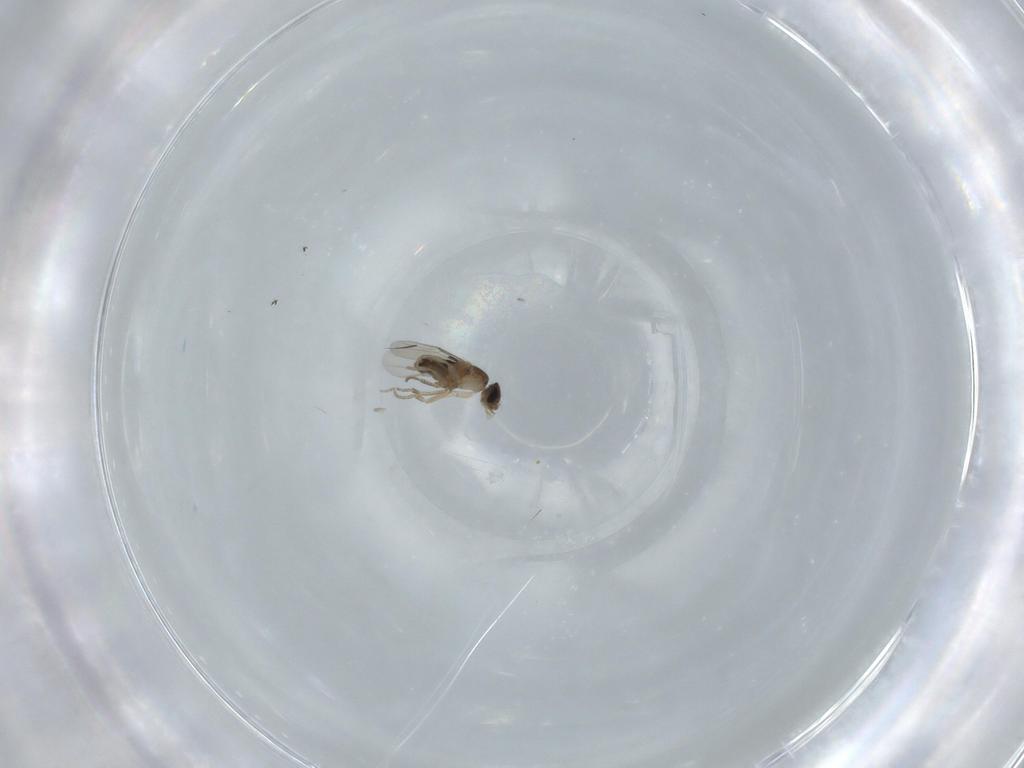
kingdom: Animalia
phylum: Arthropoda
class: Insecta
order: Diptera
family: Phoridae
